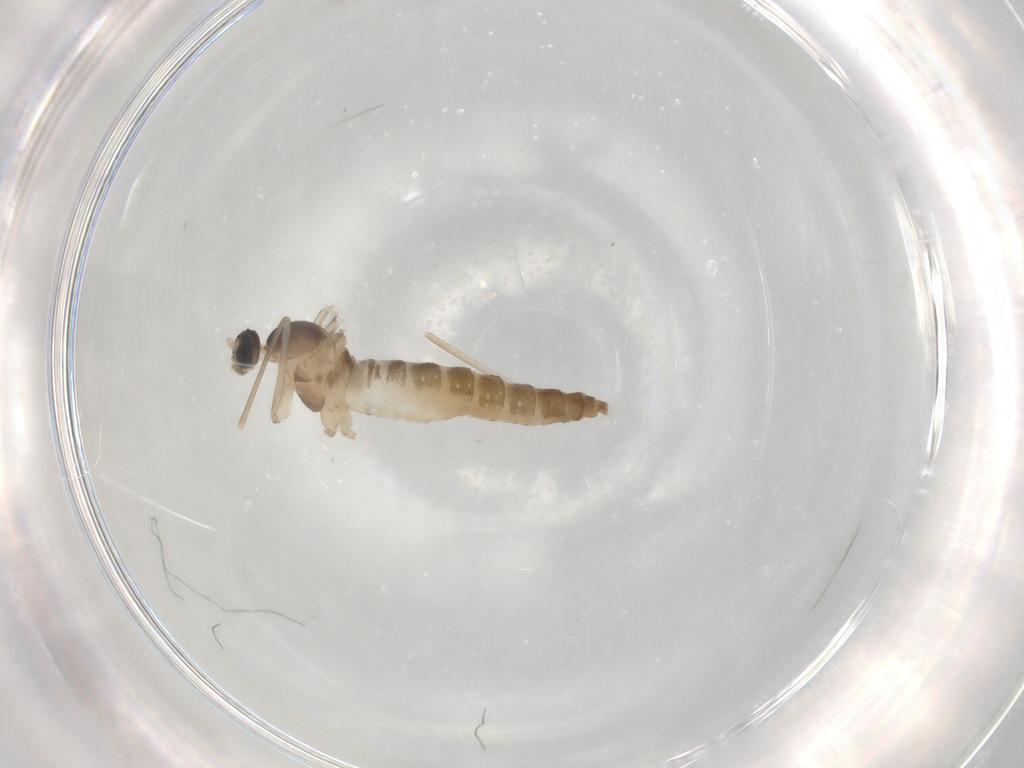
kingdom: Animalia
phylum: Arthropoda
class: Insecta
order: Diptera
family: Cecidomyiidae
